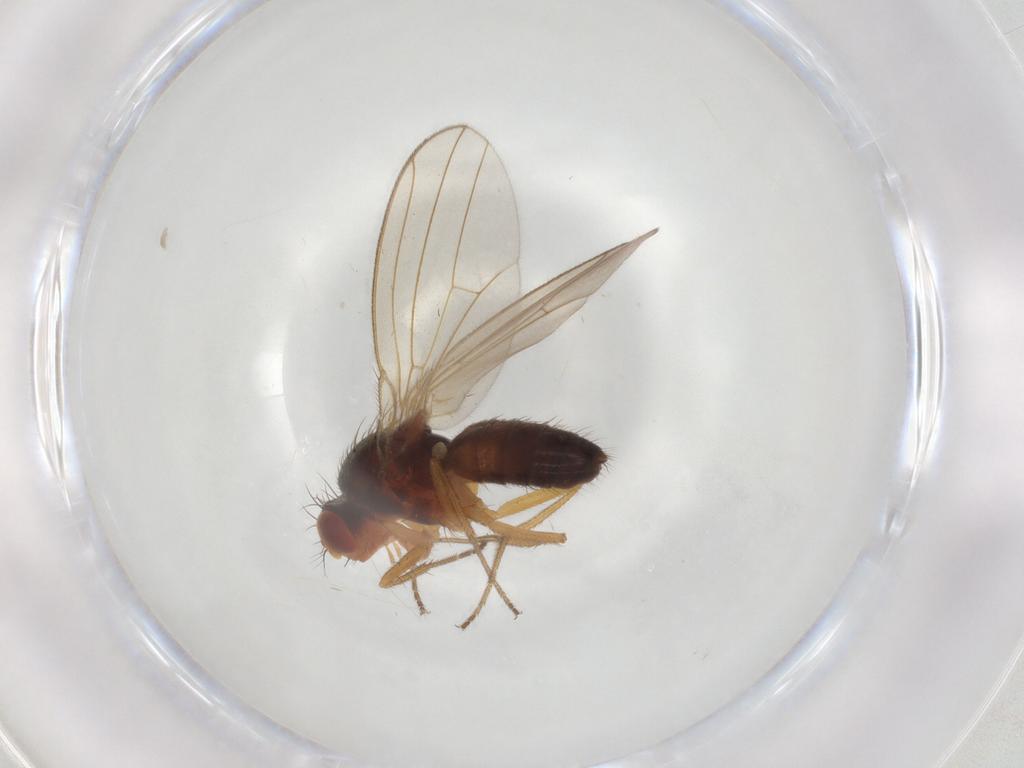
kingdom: Animalia
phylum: Arthropoda
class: Insecta
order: Diptera
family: Drosophilidae
